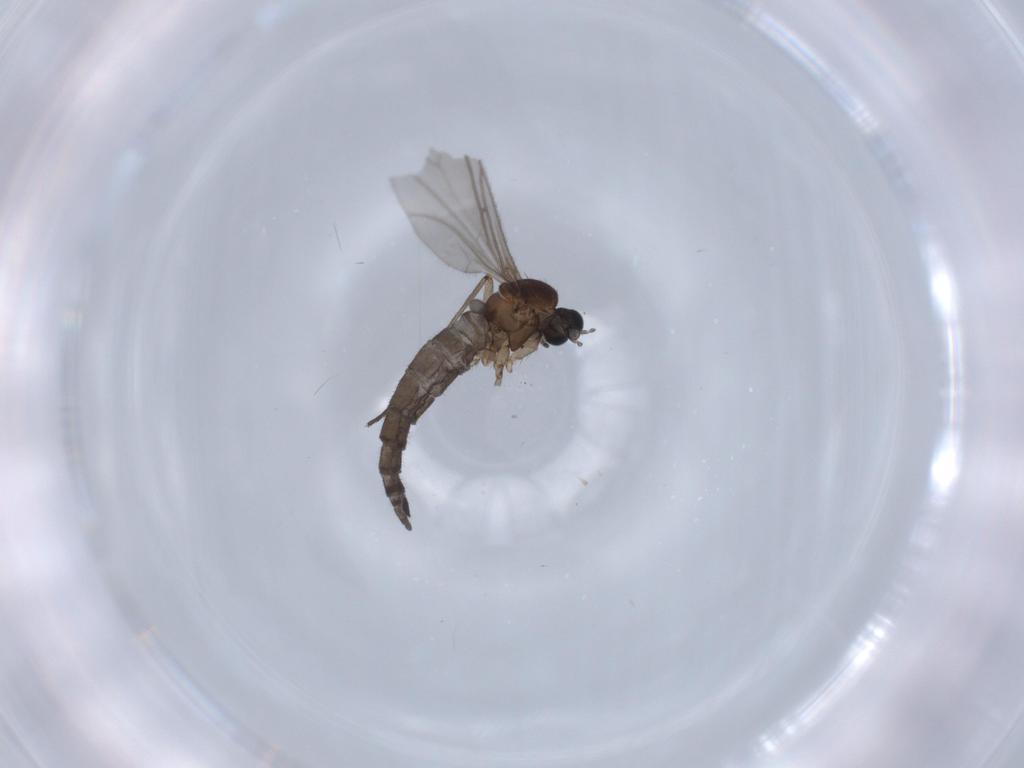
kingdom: Animalia
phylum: Arthropoda
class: Insecta
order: Diptera
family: Sciaridae
